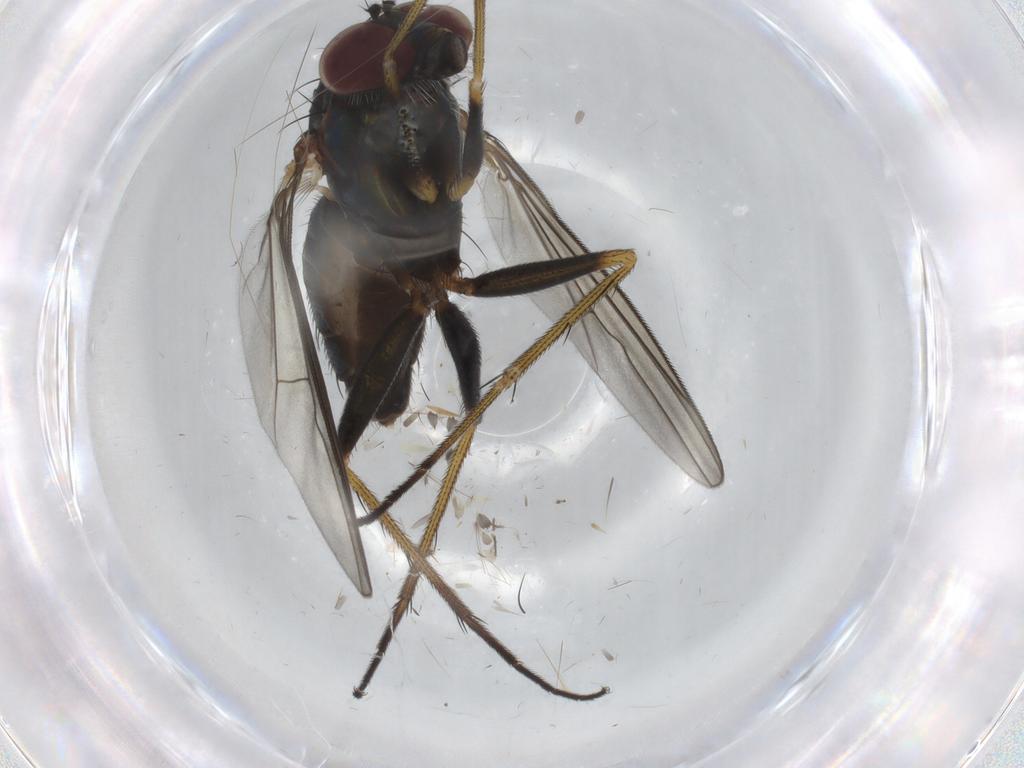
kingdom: Animalia
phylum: Arthropoda
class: Insecta
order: Diptera
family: Dolichopodidae
